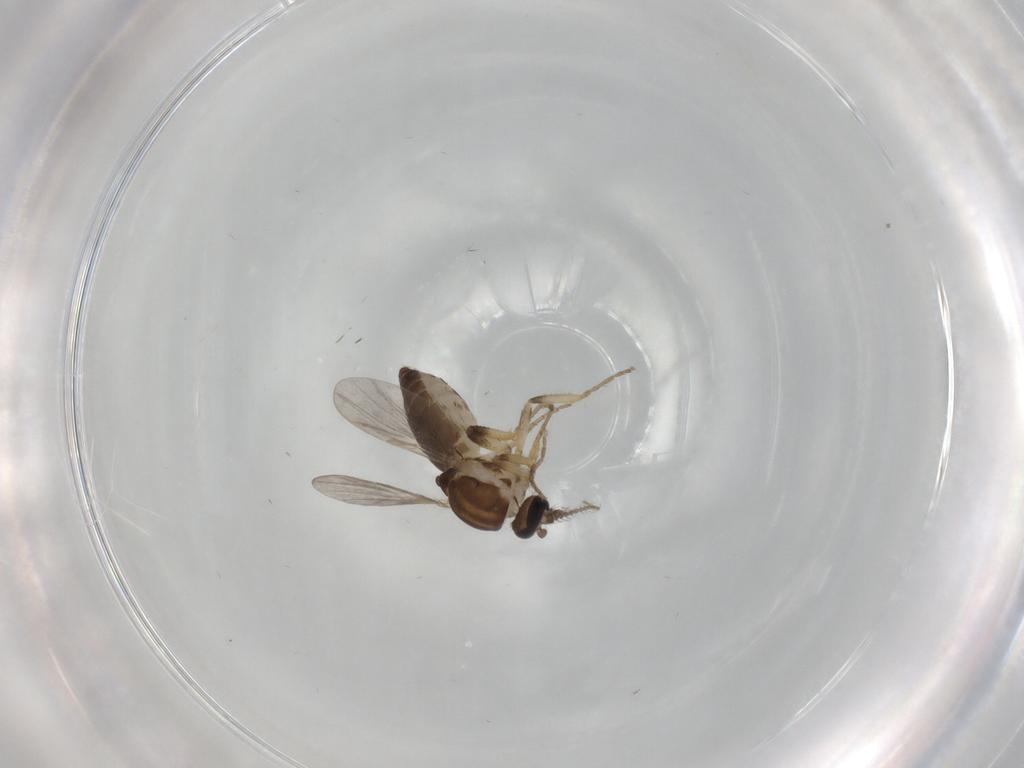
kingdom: Animalia
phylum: Arthropoda
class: Insecta
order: Diptera
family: Ceratopogonidae
